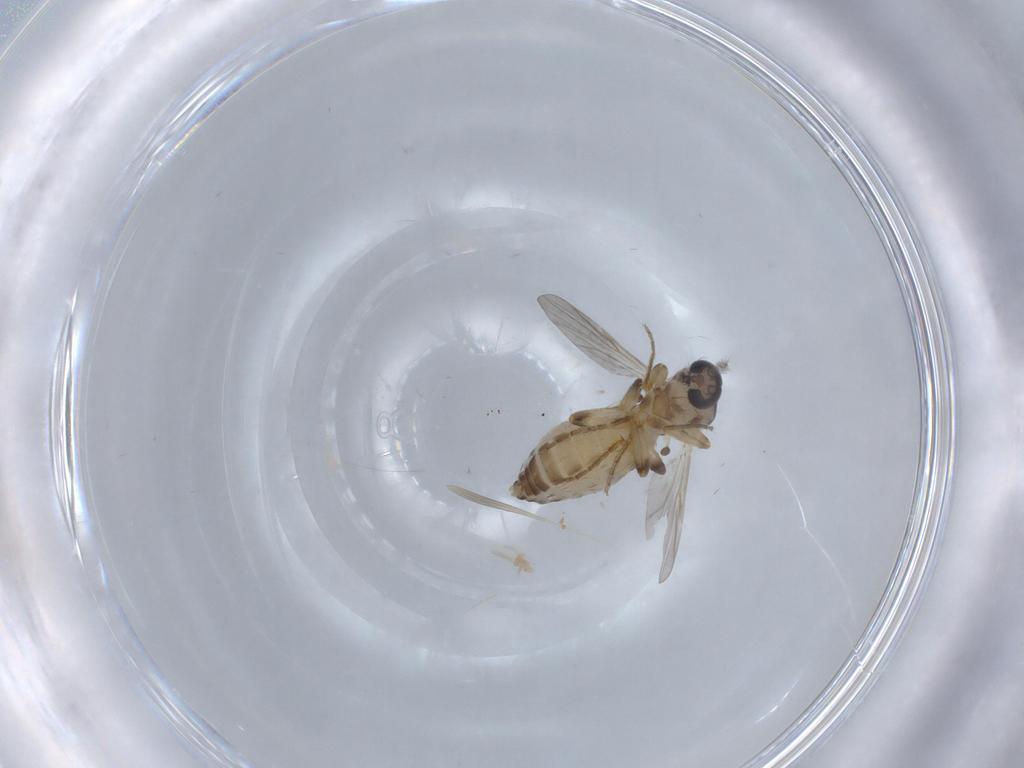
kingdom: Animalia
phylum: Arthropoda
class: Insecta
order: Diptera
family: Ceratopogonidae
